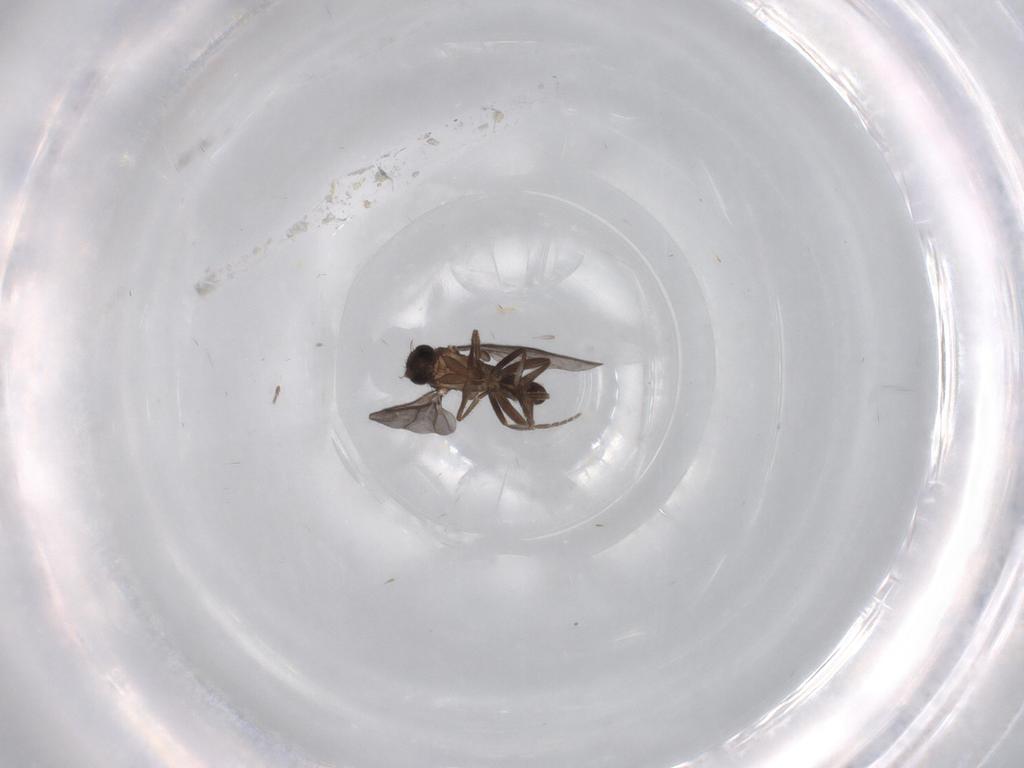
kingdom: Animalia
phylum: Arthropoda
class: Insecta
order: Diptera
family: Phoridae
